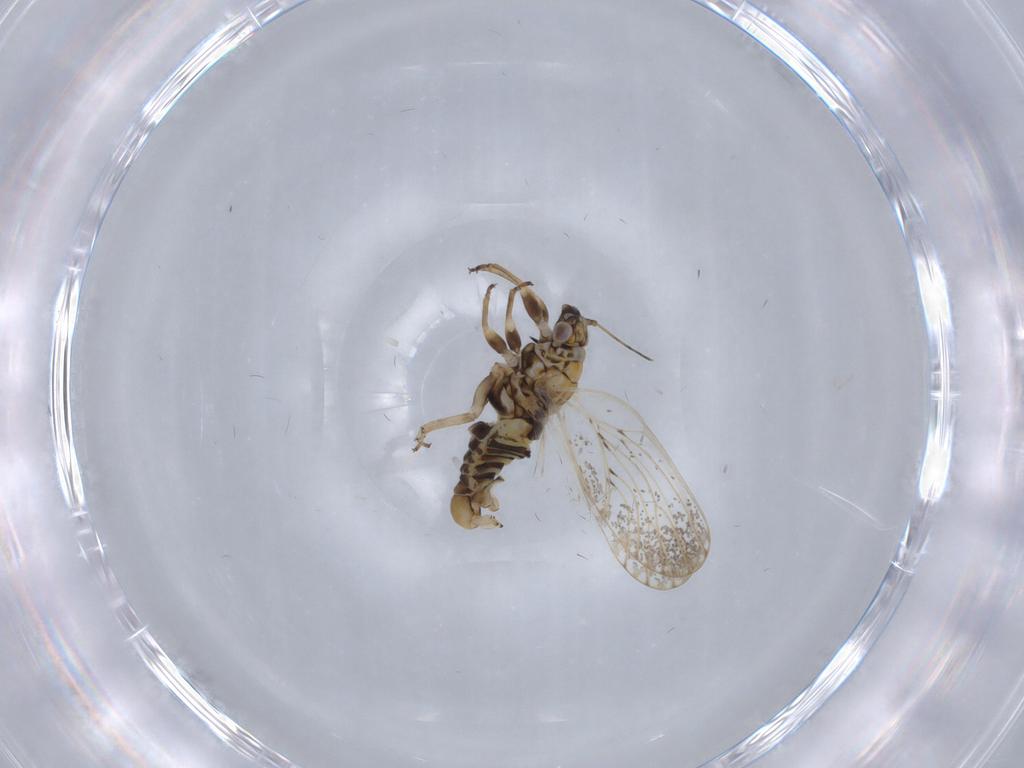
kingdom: Animalia
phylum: Arthropoda
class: Insecta
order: Hemiptera
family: Psyllidae
